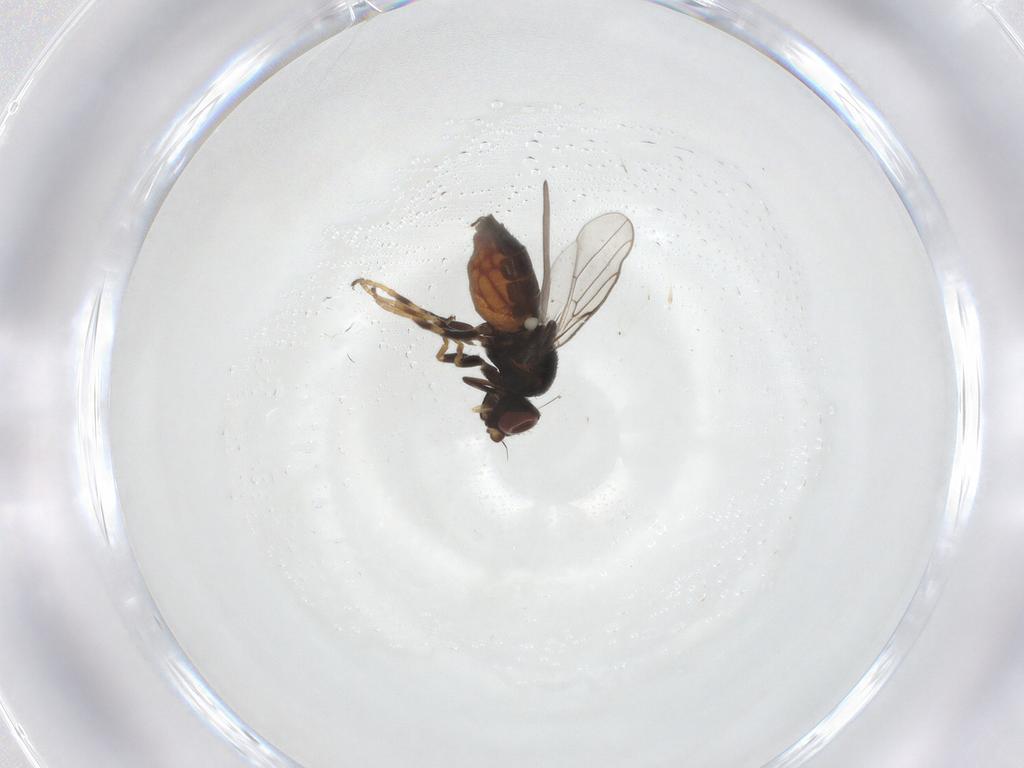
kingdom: Animalia
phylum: Arthropoda
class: Insecta
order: Diptera
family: Chloropidae
